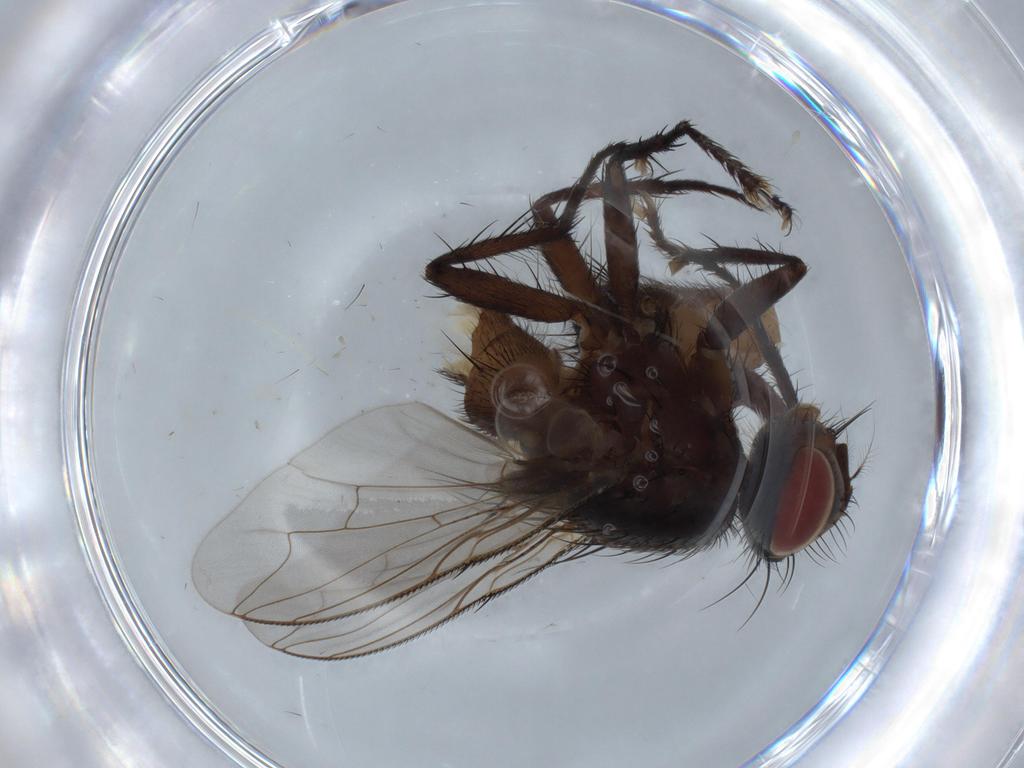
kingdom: Animalia
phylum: Arthropoda
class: Insecta
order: Diptera
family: Sarcophagidae
